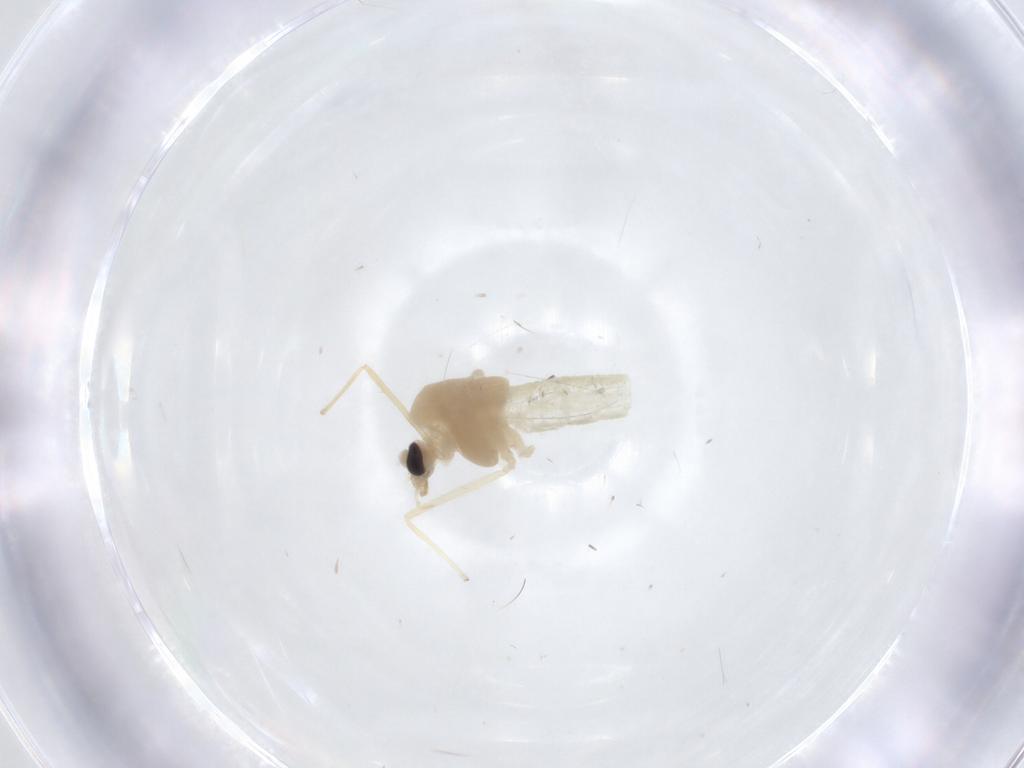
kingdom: Animalia
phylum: Arthropoda
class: Insecta
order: Diptera
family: Chironomidae
